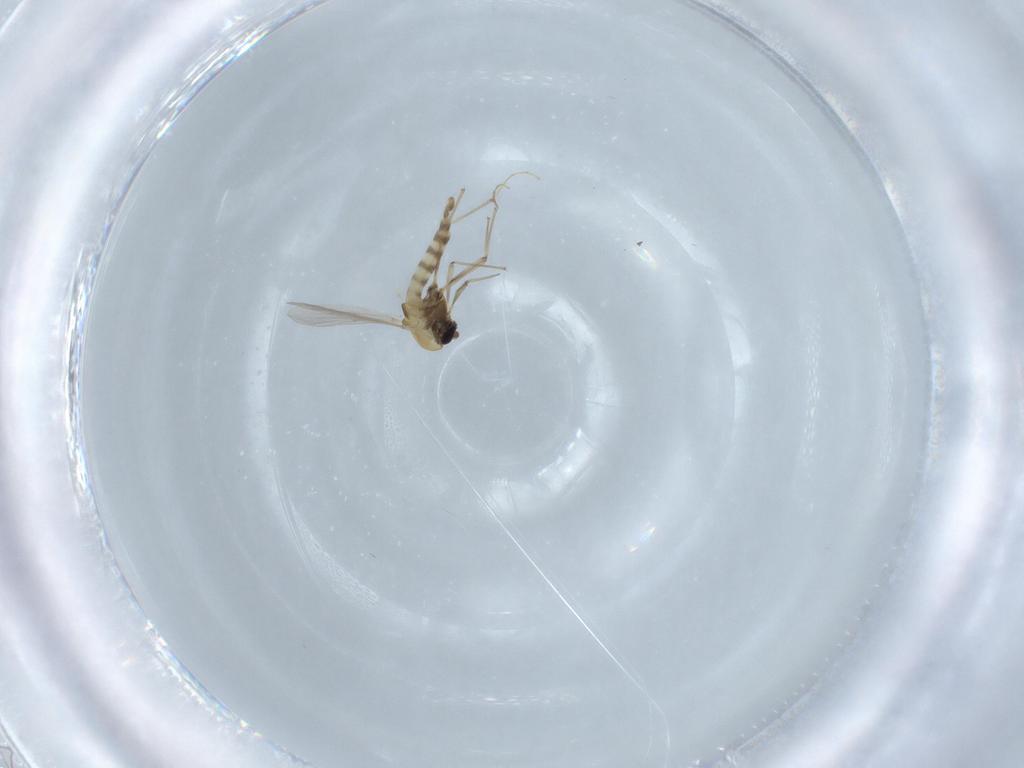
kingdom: Animalia
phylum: Arthropoda
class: Insecta
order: Diptera
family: Chironomidae
